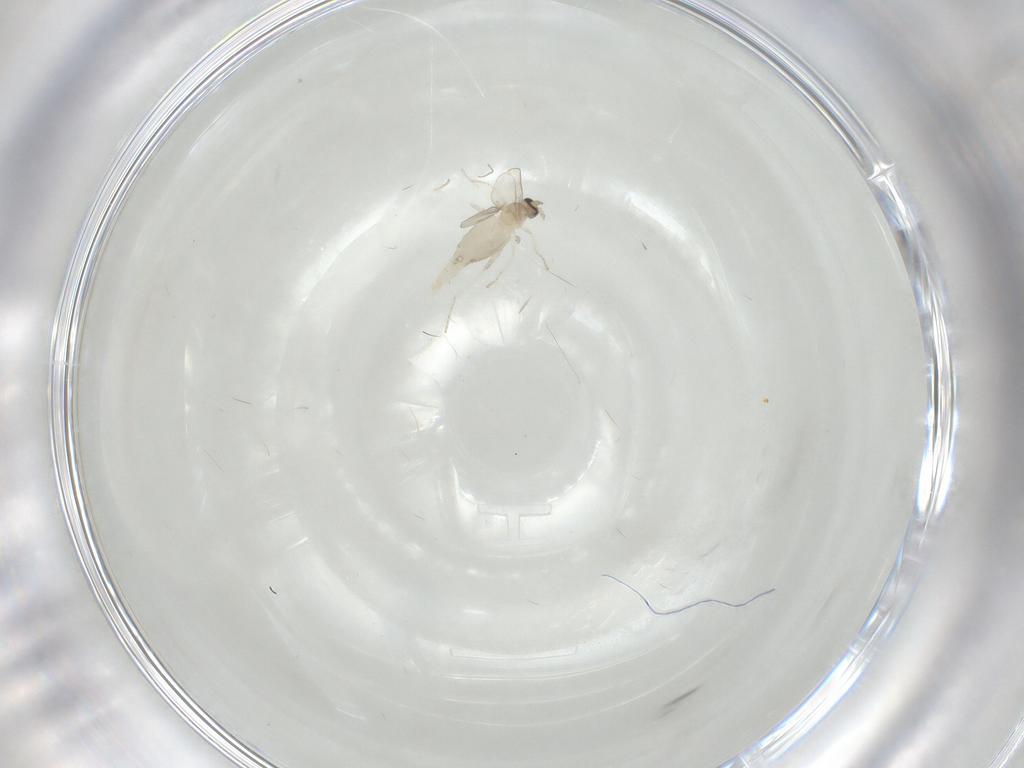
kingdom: Animalia
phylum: Arthropoda
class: Insecta
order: Diptera
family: Cecidomyiidae
